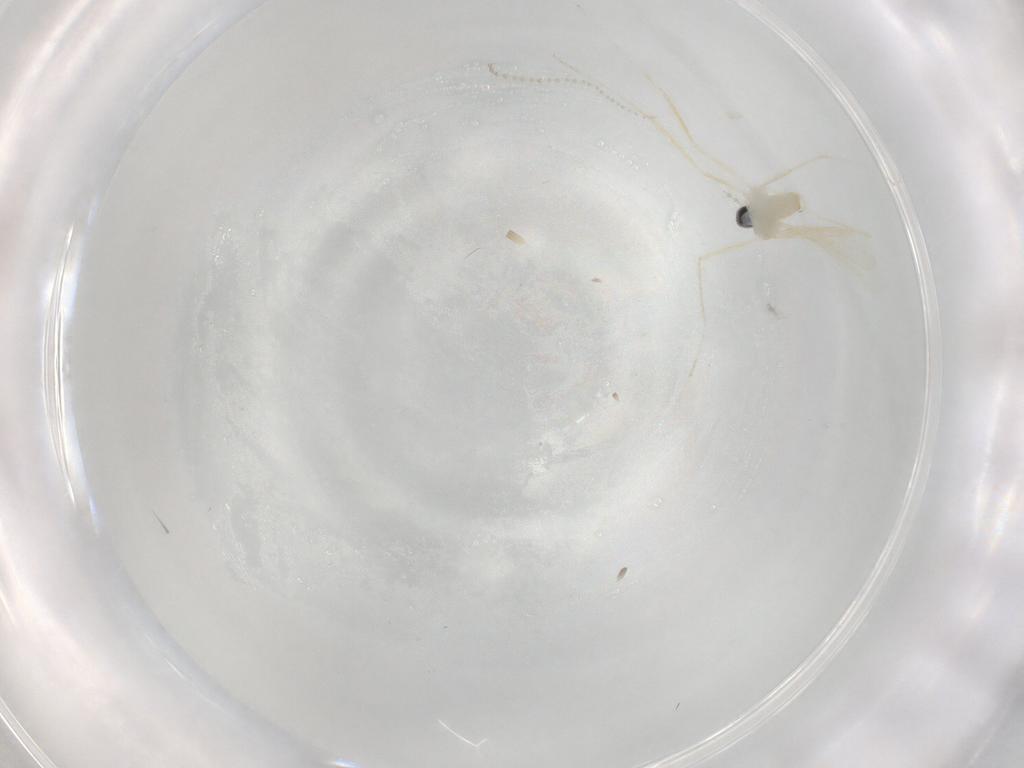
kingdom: Animalia
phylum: Arthropoda
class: Insecta
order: Diptera
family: Cecidomyiidae
